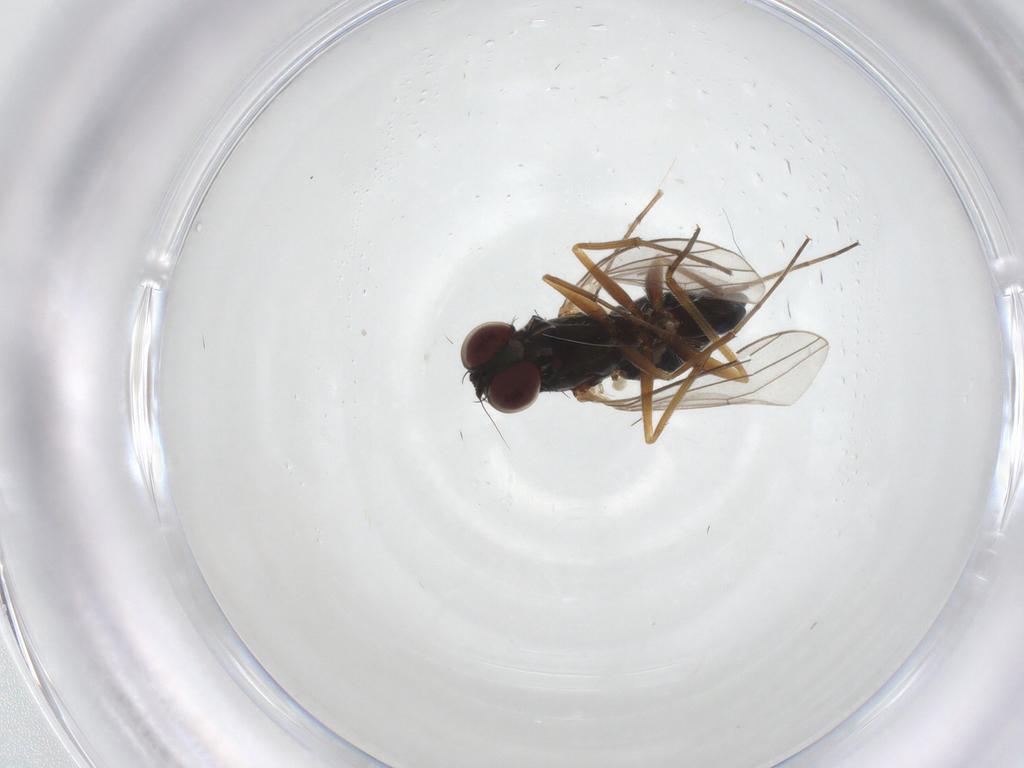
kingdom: Animalia
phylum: Arthropoda
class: Insecta
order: Diptera
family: Dolichopodidae
